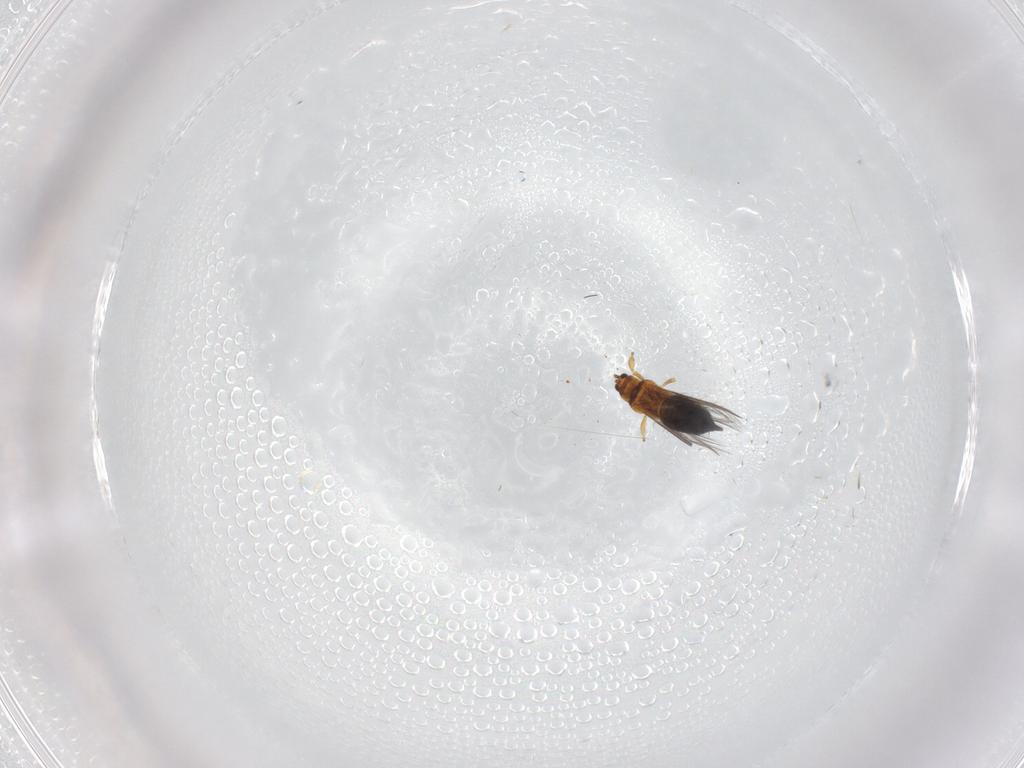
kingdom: Animalia
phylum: Arthropoda
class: Insecta
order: Thysanoptera
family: Thripidae
